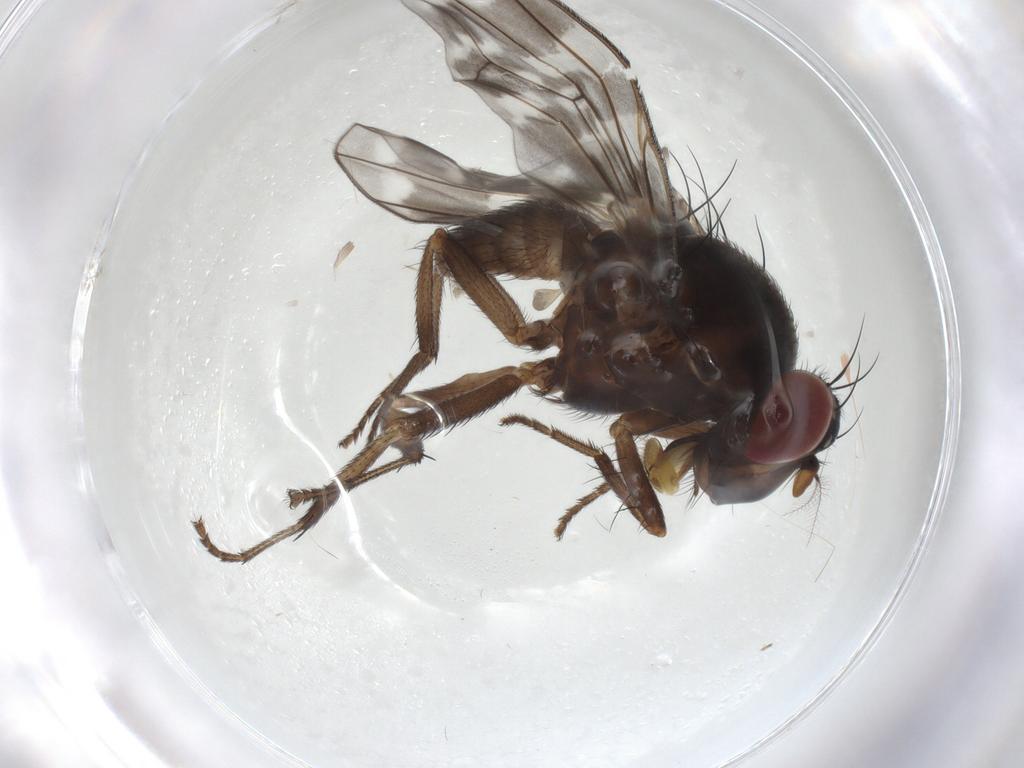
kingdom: Animalia
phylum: Arthropoda
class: Insecta
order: Diptera
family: Lauxaniidae
